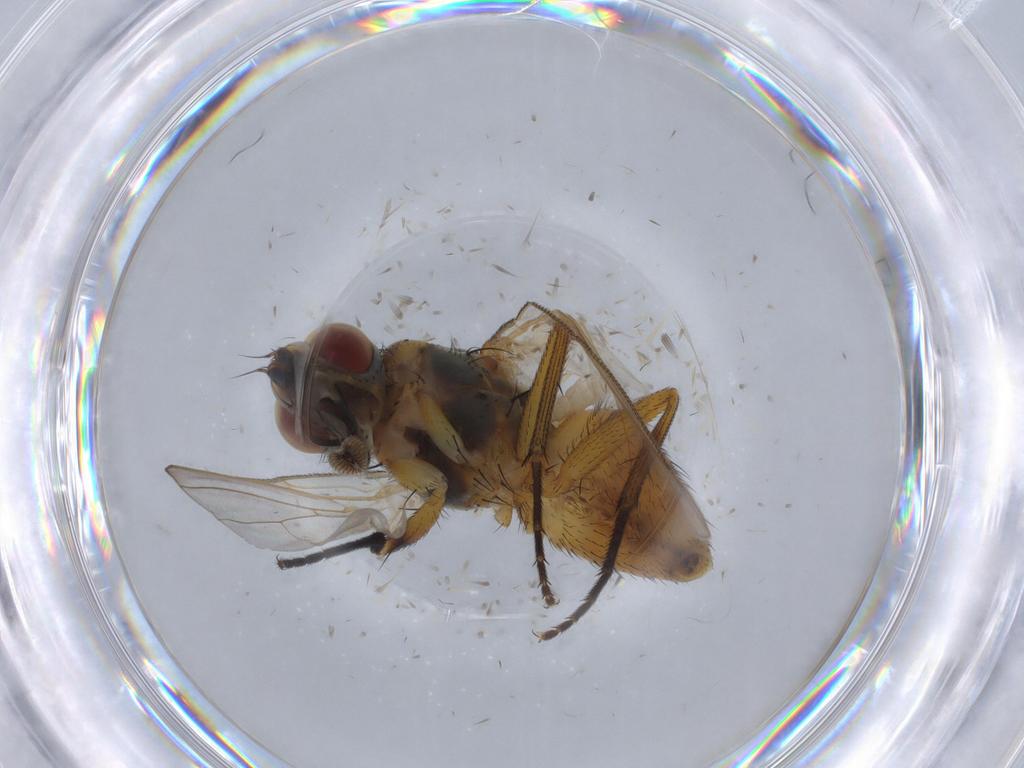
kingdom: Animalia
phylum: Arthropoda
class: Insecta
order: Diptera
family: Muscidae
